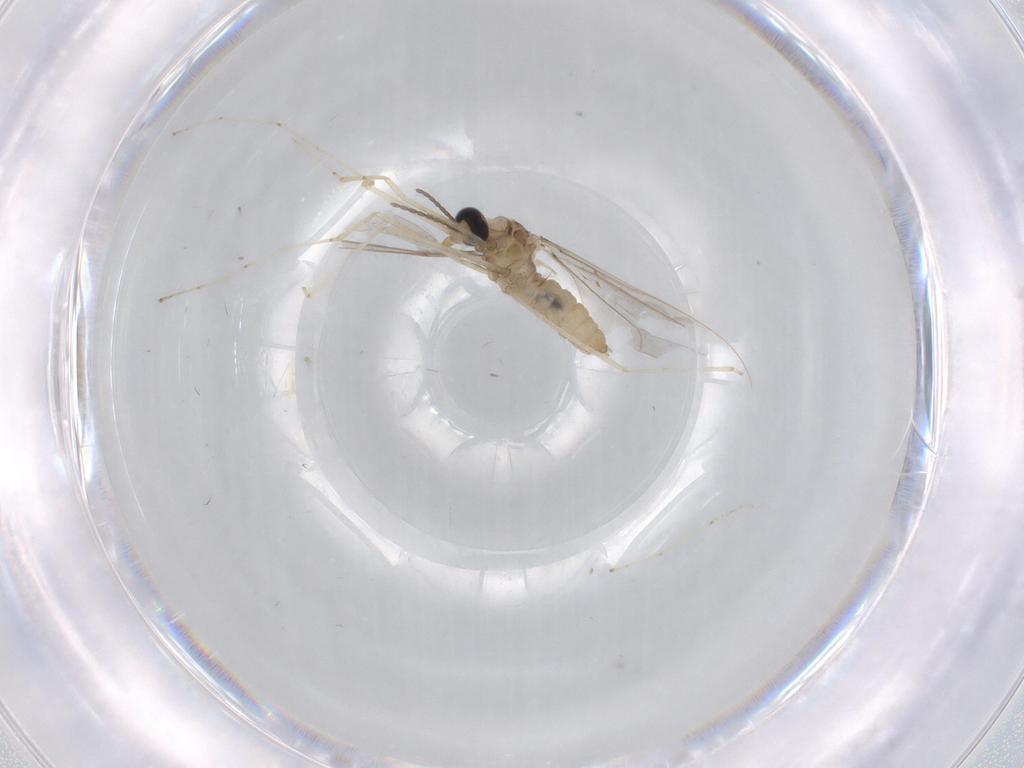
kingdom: Animalia
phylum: Arthropoda
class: Insecta
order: Diptera
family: Cecidomyiidae
